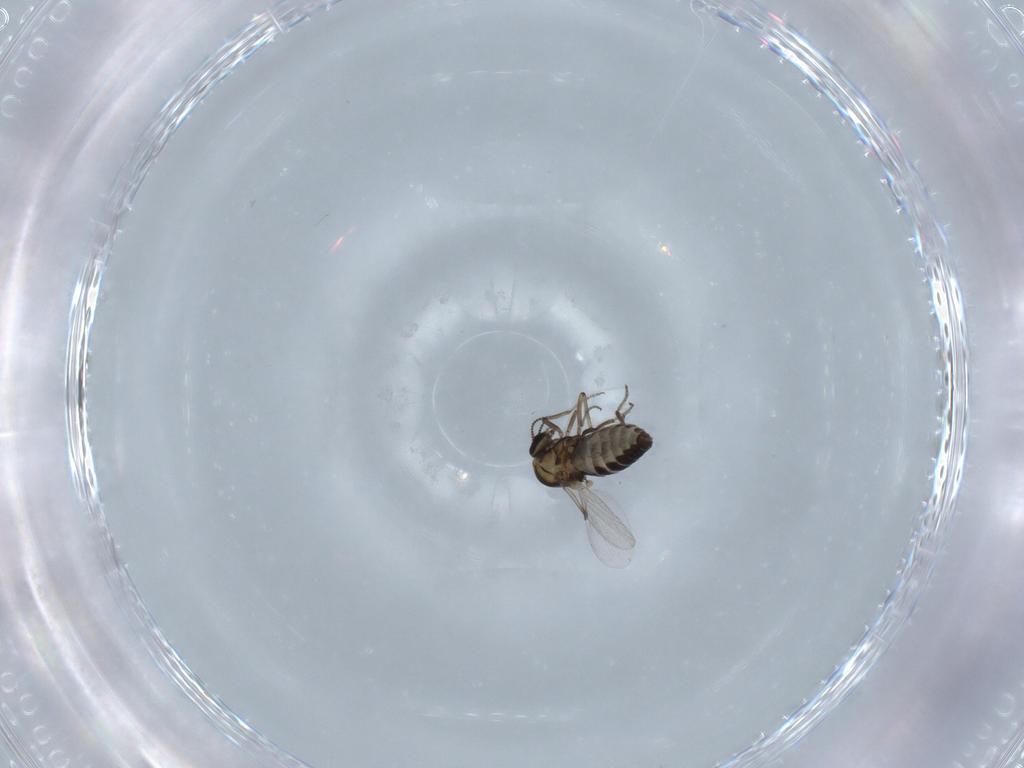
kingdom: Animalia
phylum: Arthropoda
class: Insecta
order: Diptera
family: Ceratopogonidae
